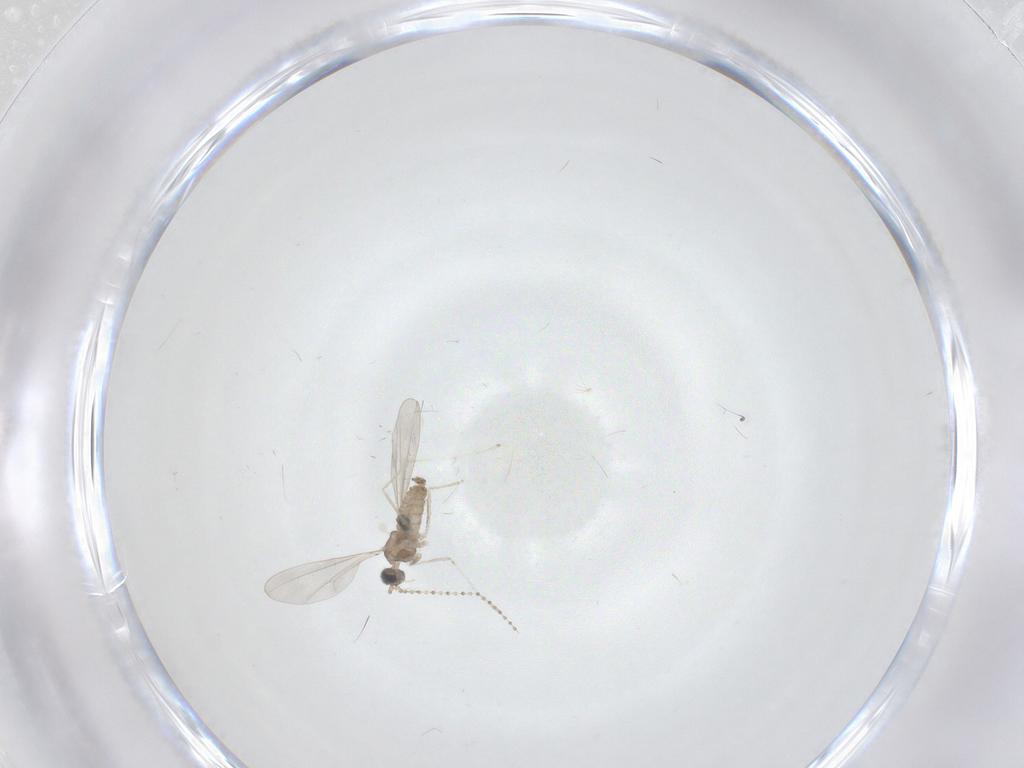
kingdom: Animalia
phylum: Arthropoda
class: Insecta
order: Diptera
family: Cecidomyiidae
